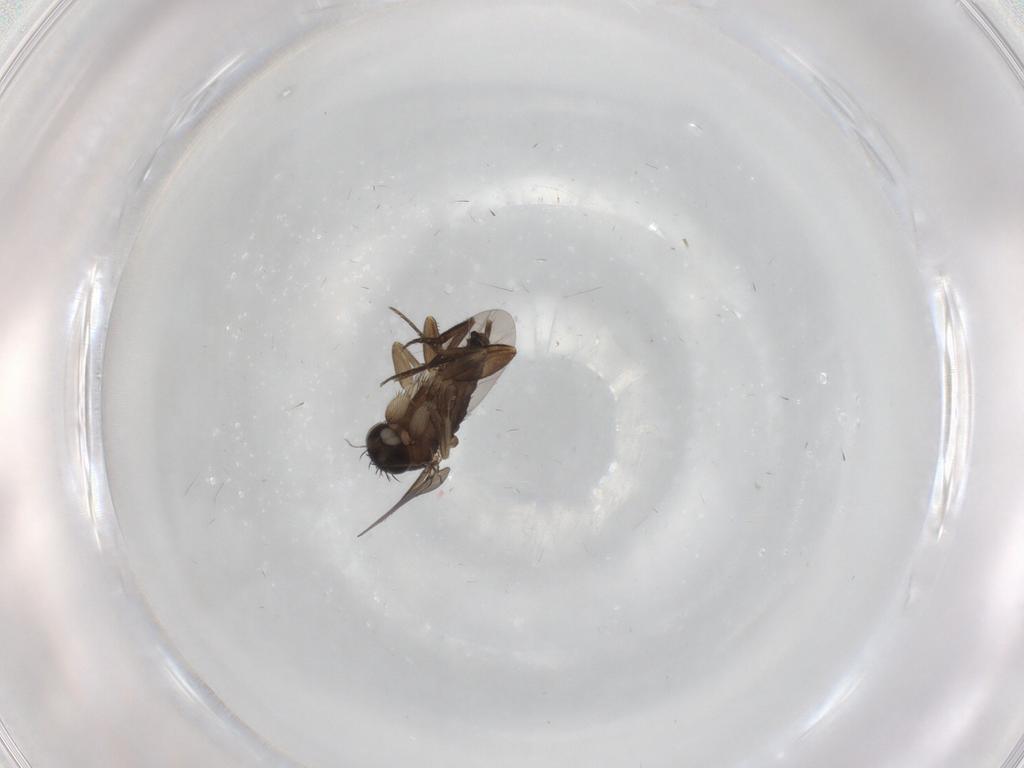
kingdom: Animalia
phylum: Arthropoda
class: Insecta
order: Diptera
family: Phoridae
